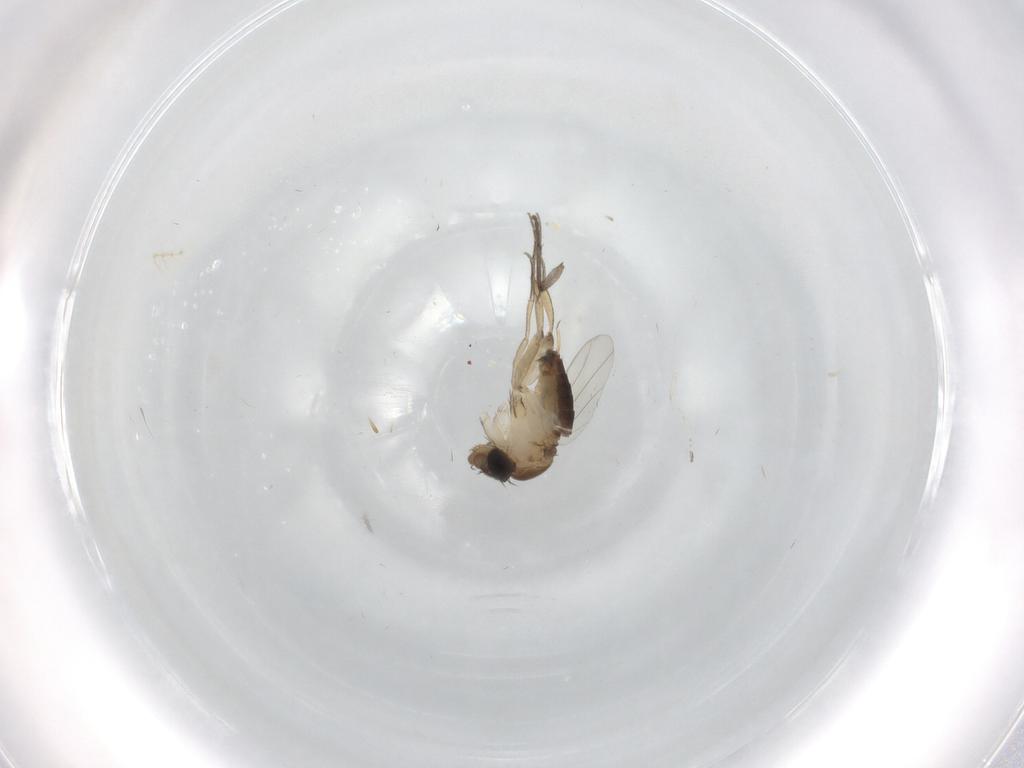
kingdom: Animalia
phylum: Arthropoda
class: Insecta
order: Diptera
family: Phoridae
